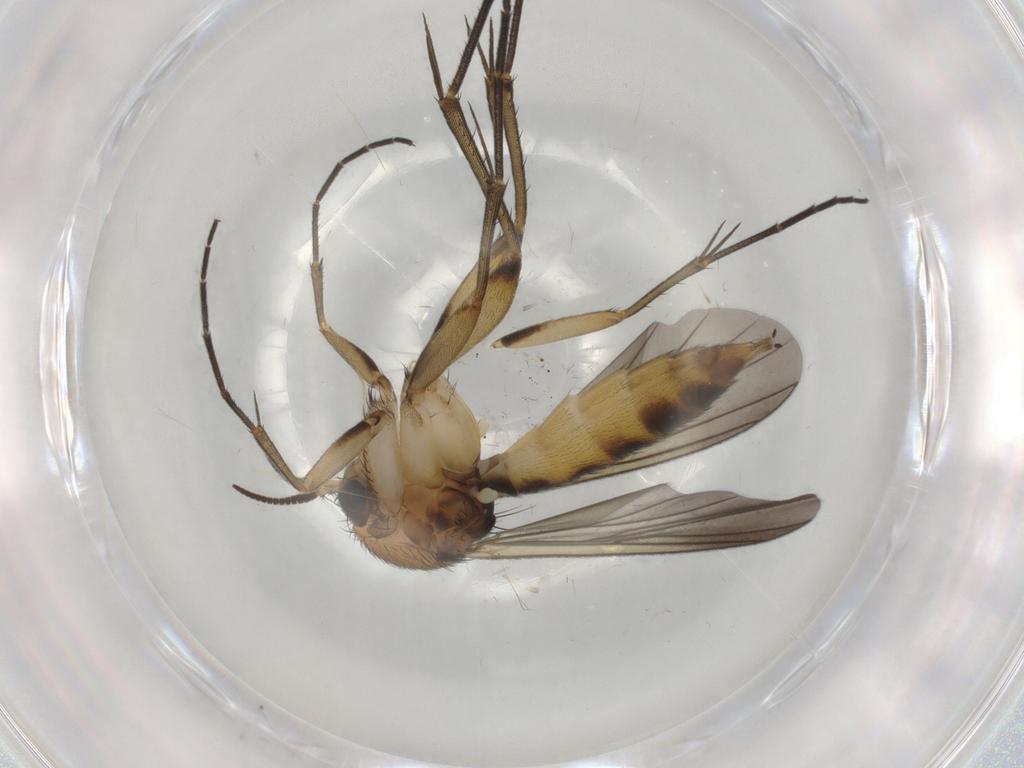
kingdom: Animalia
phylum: Arthropoda
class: Insecta
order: Diptera
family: Mycetophilidae
